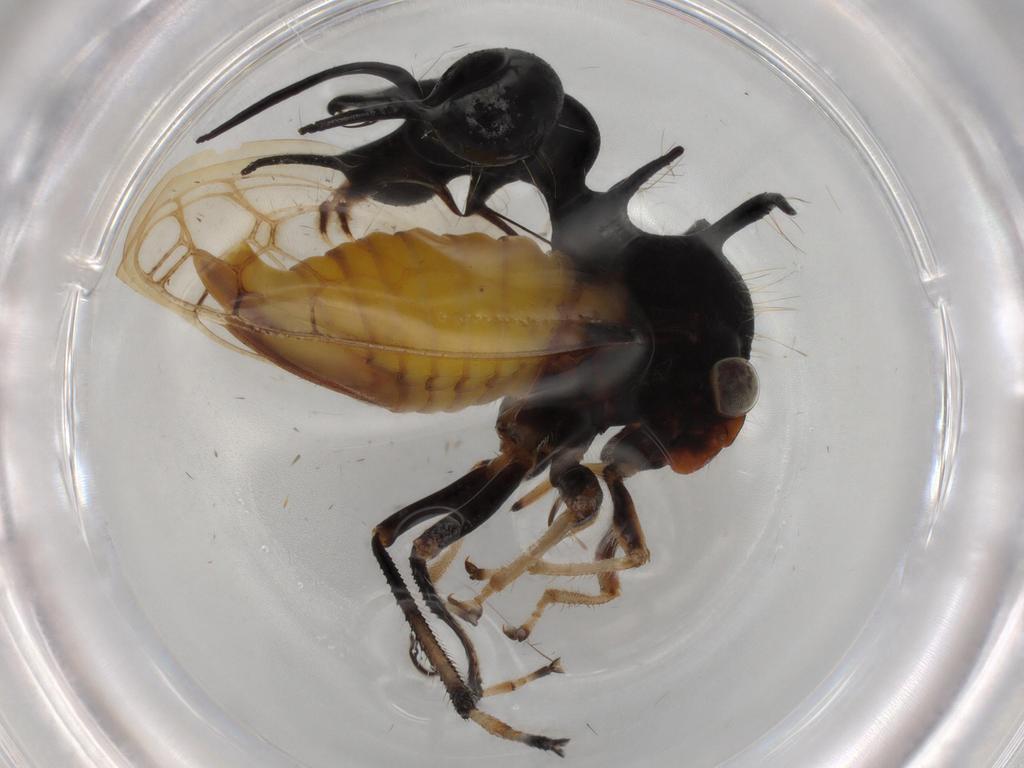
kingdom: Animalia
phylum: Arthropoda
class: Insecta
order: Hemiptera
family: Membracidae
